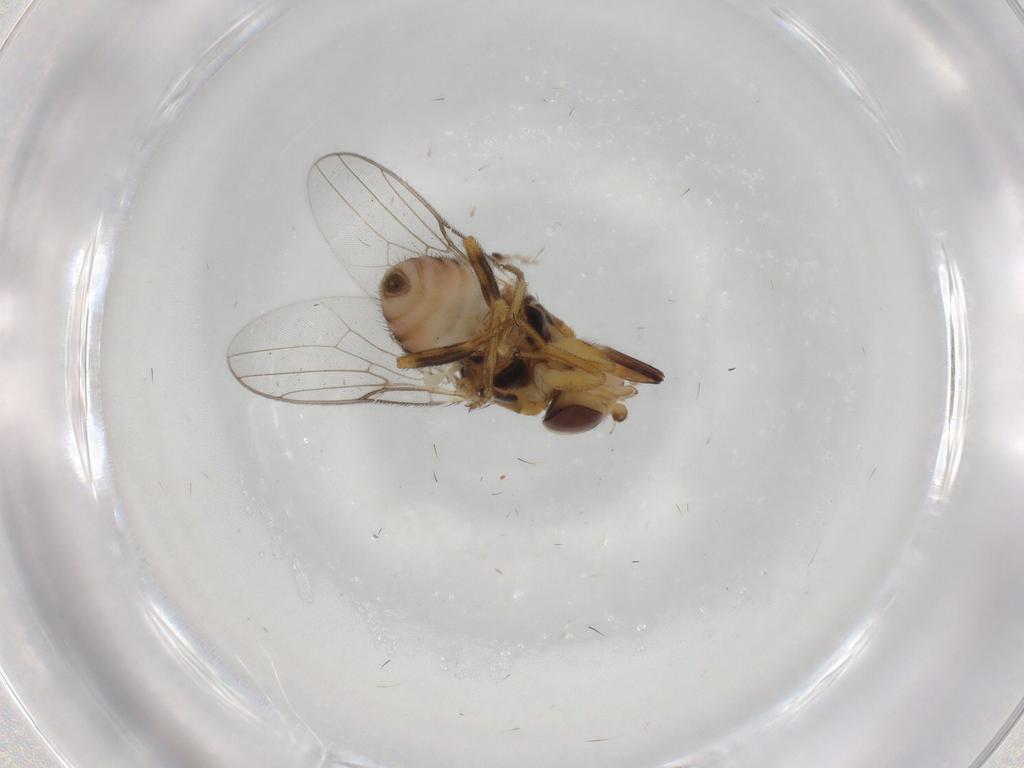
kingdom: Animalia
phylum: Arthropoda
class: Insecta
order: Diptera
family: Chloropidae
